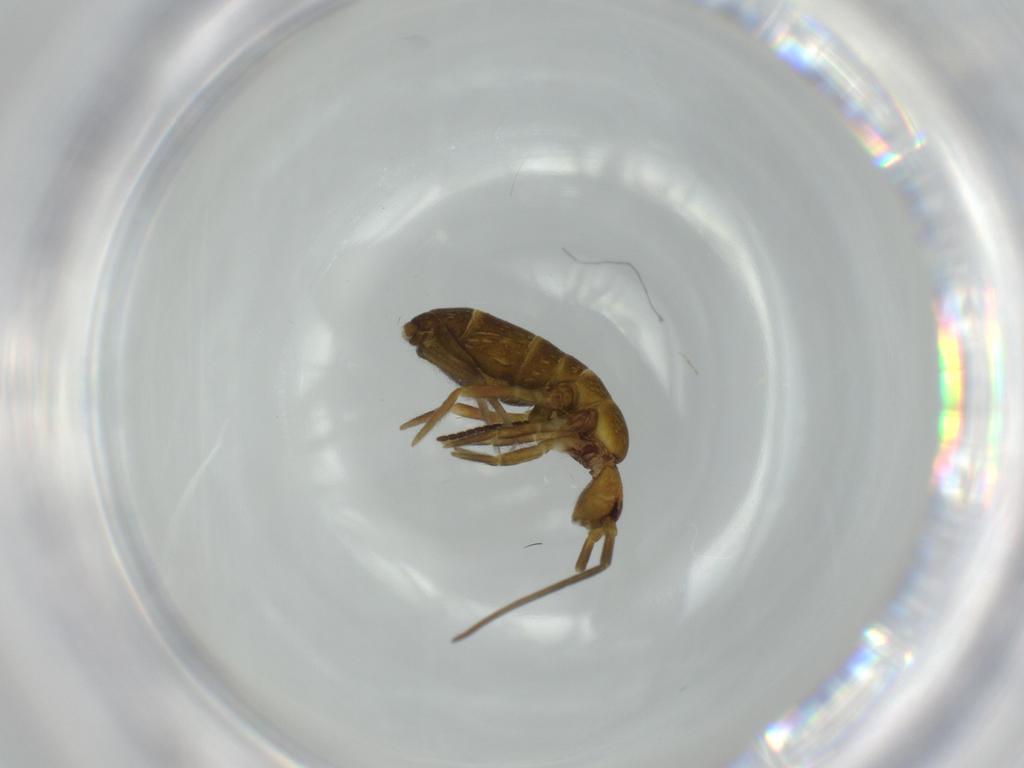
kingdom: Animalia
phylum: Arthropoda
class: Collembola
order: Entomobryomorpha
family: Tomoceridae
